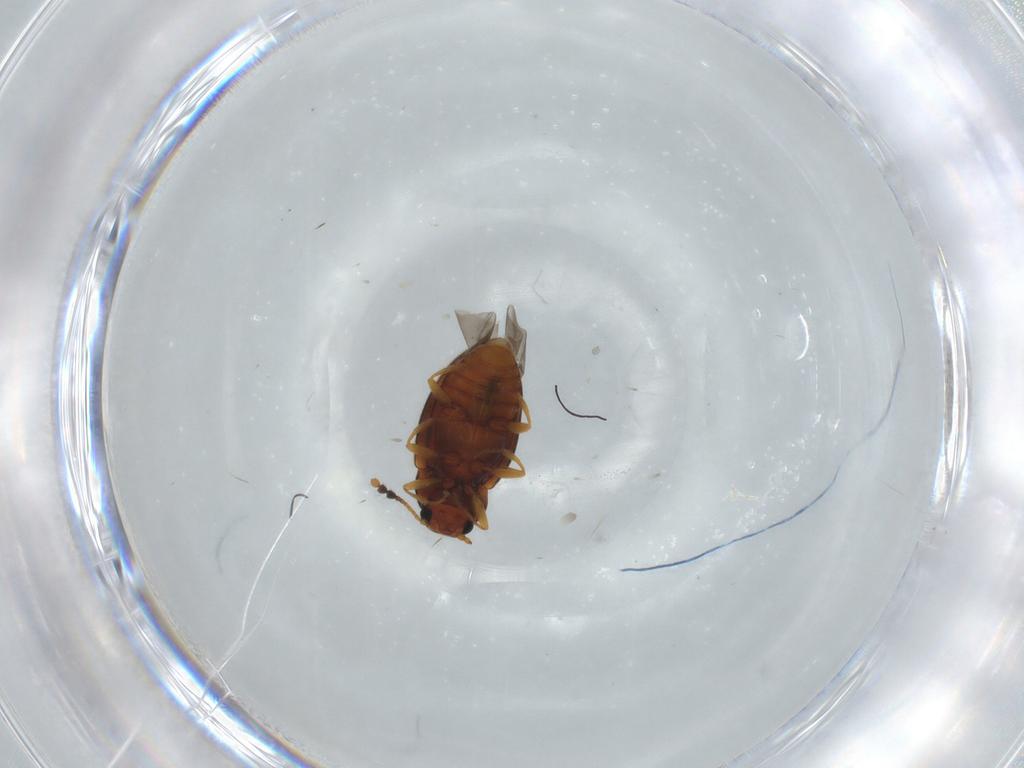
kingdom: Animalia
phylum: Arthropoda
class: Insecta
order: Coleoptera
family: Erotylidae
